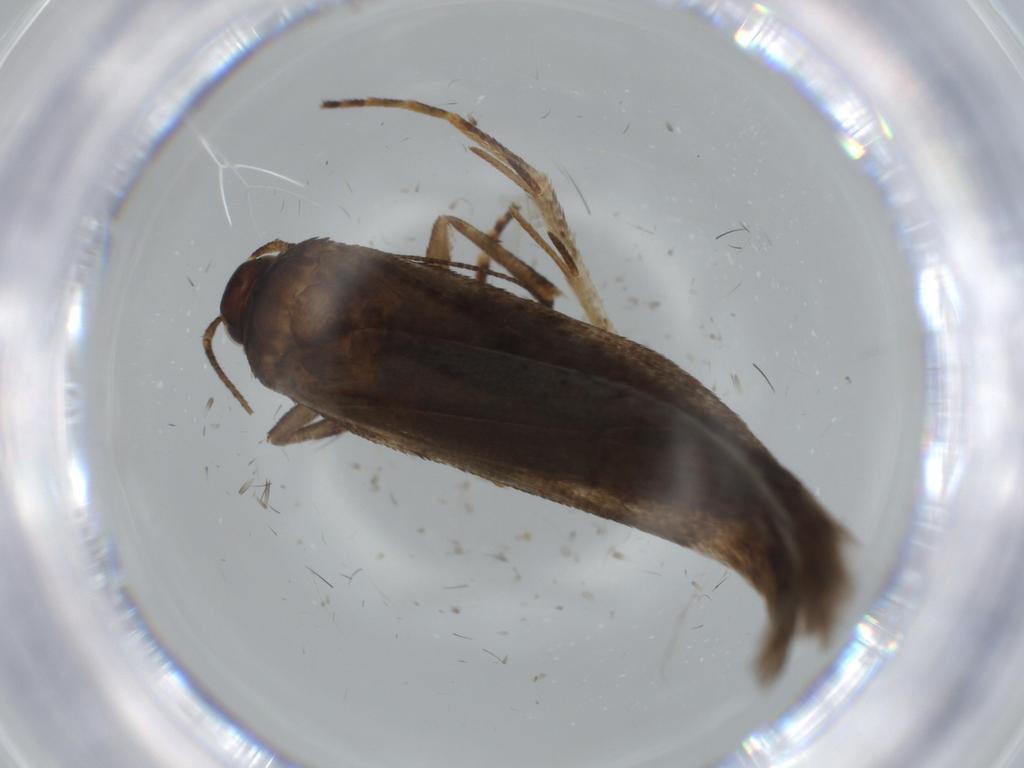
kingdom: Animalia
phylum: Arthropoda
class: Insecta
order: Lepidoptera
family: Gelechiidae
